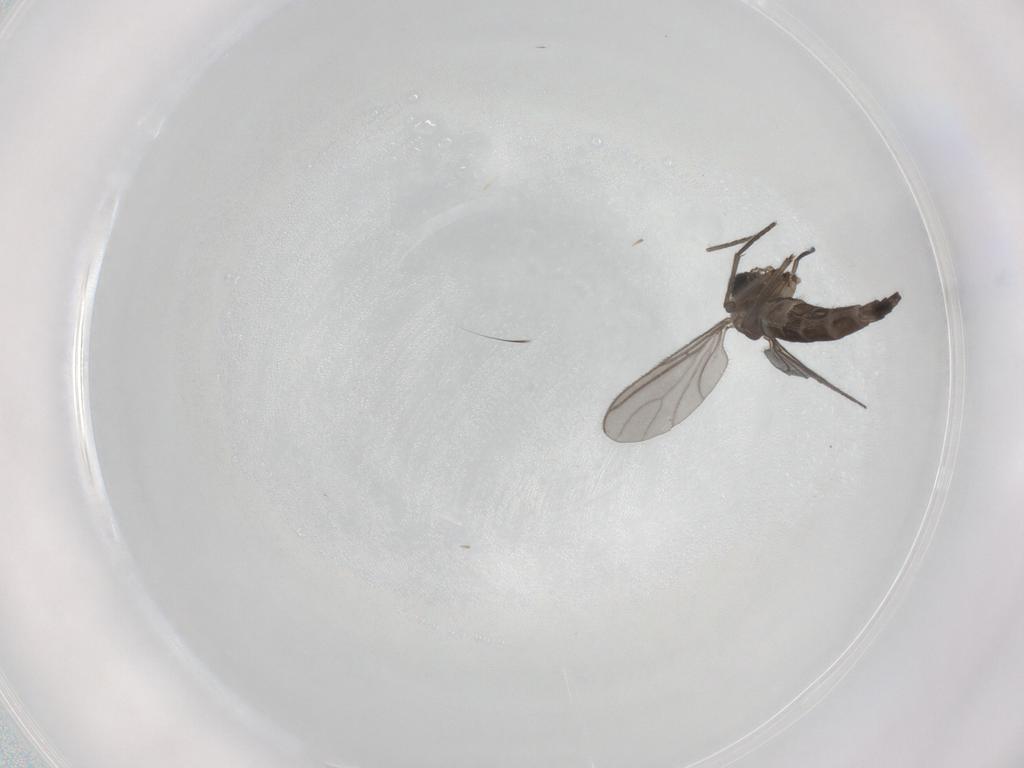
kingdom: Animalia
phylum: Arthropoda
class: Insecta
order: Diptera
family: Sciaridae
